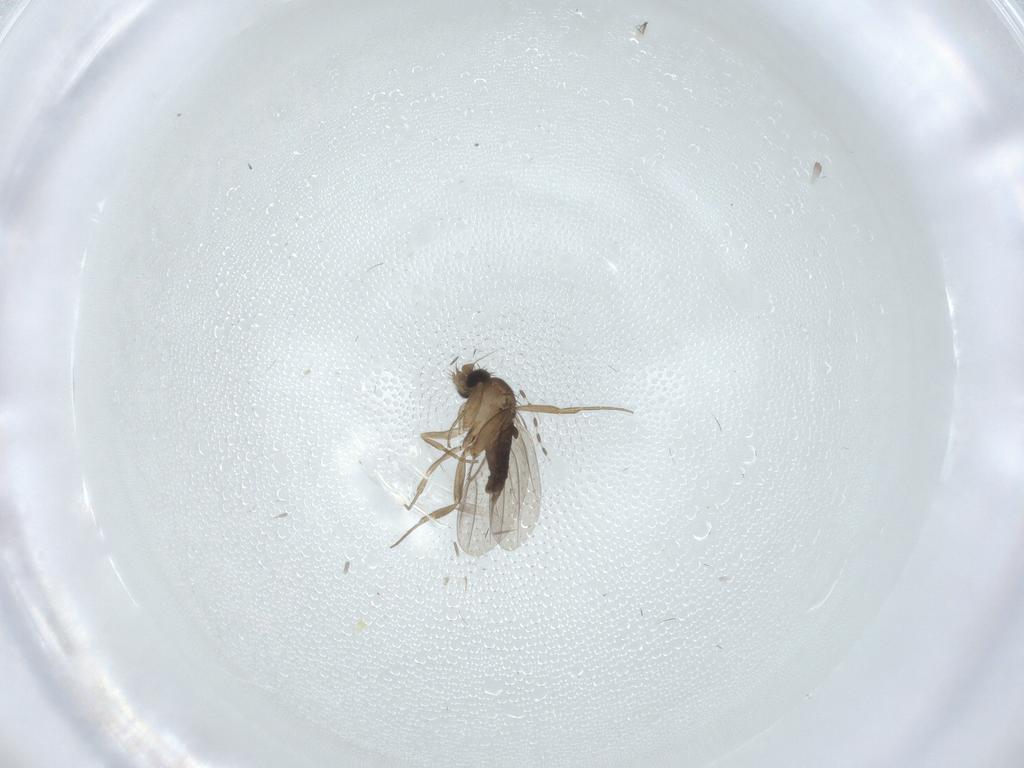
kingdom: Animalia
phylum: Arthropoda
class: Insecta
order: Diptera
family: Phoridae
